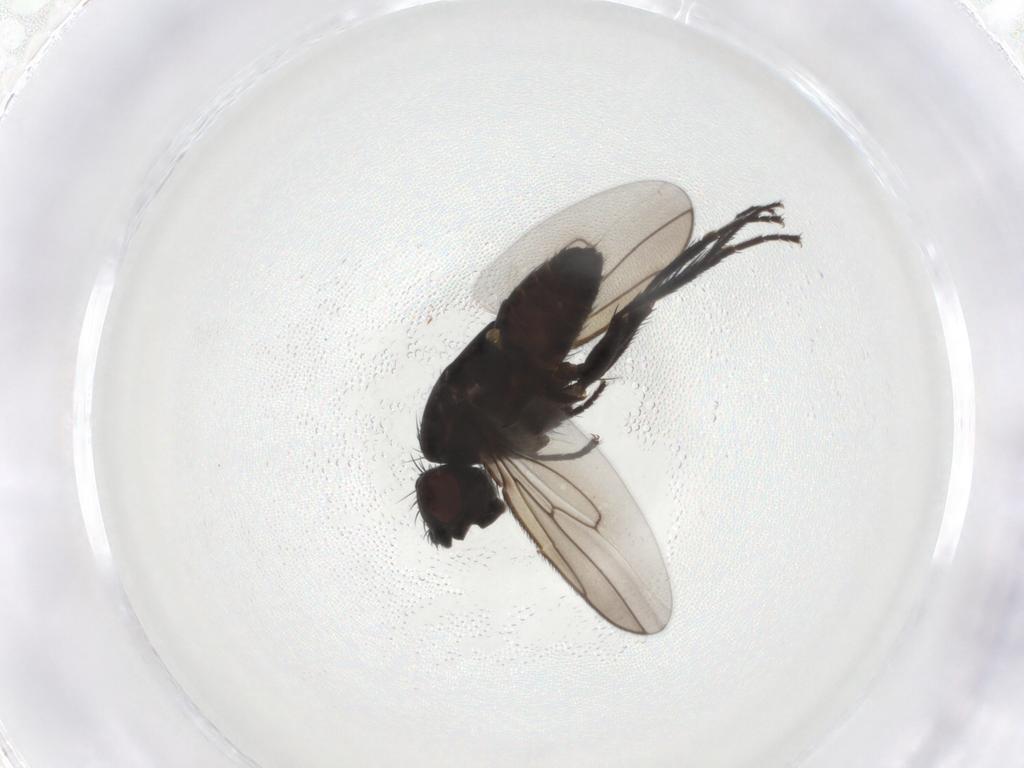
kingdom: Animalia
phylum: Arthropoda
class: Insecta
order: Diptera
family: Sphaeroceridae
